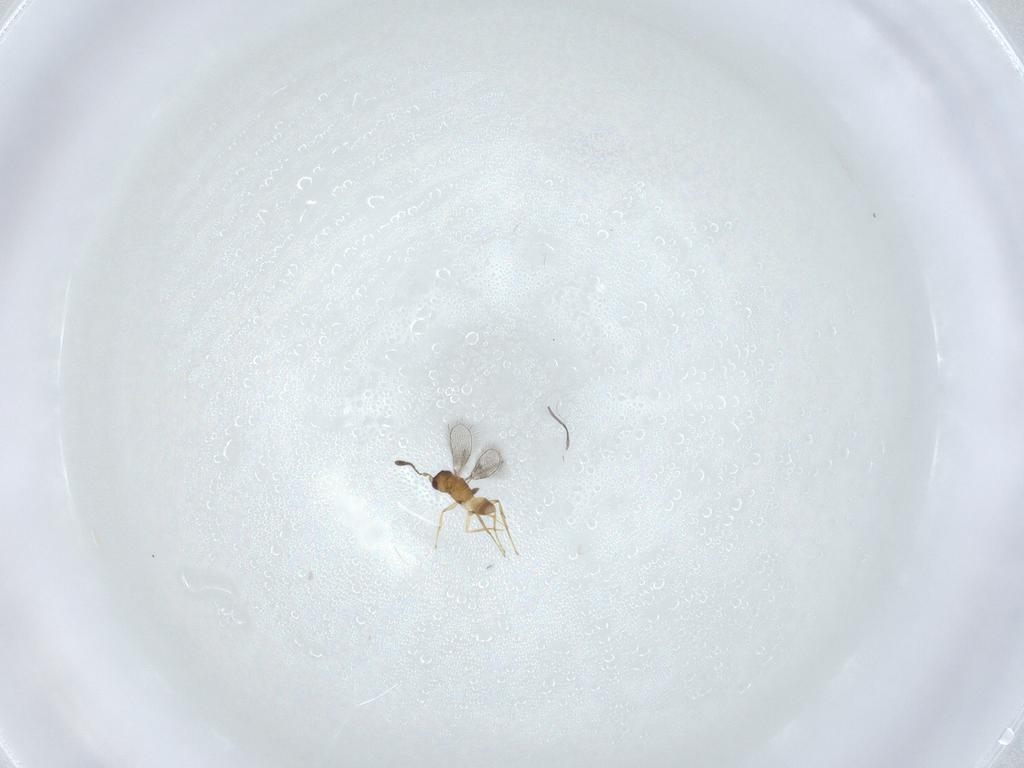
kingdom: Animalia
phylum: Arthropoda
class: Insecta
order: Hymenoptera
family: Mymaridae
